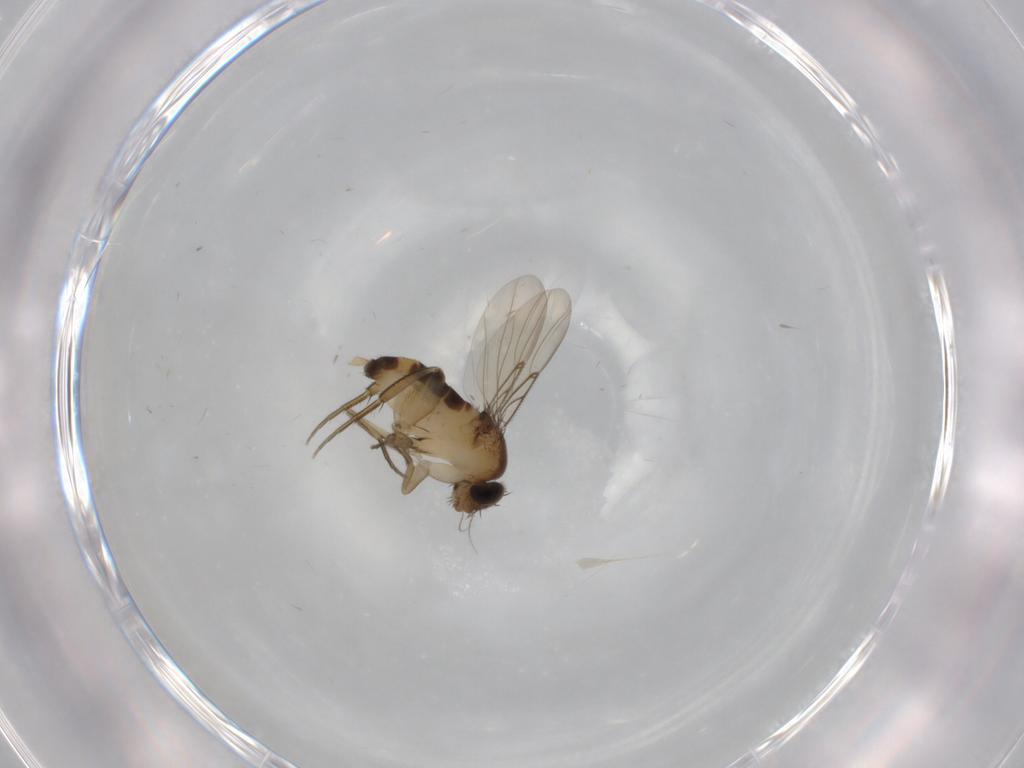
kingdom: Animalia
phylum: Arthropoda
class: Insecta
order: Diptera
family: Phoridae
